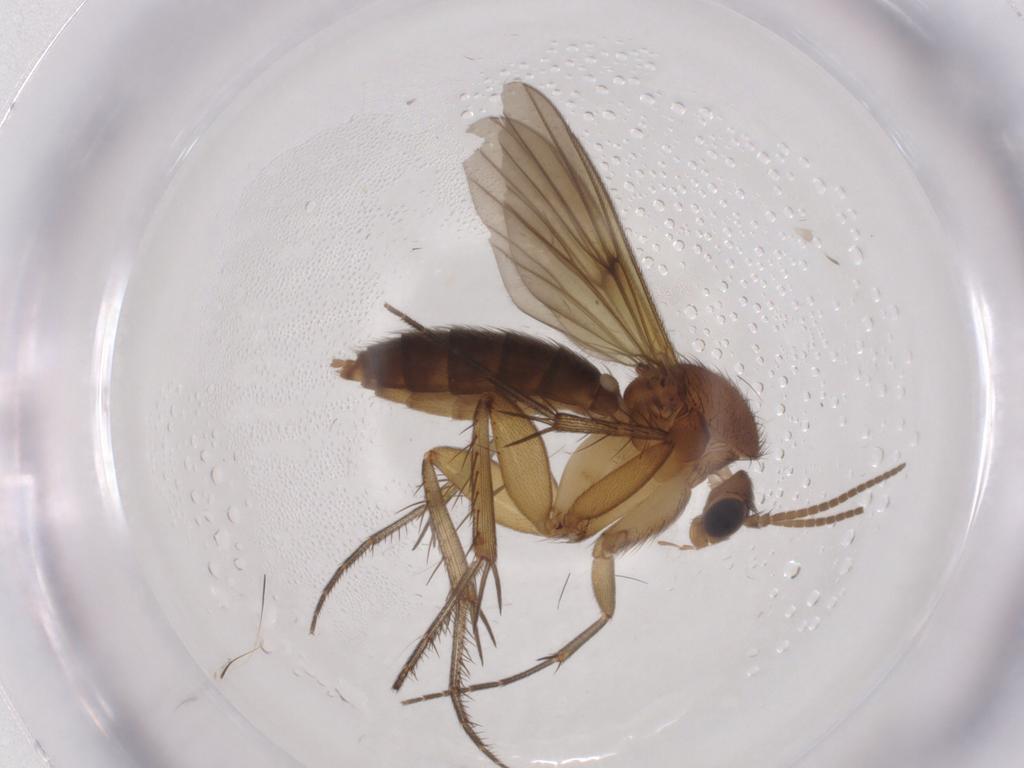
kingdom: Animalia
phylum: Arthropoda
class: Insecta
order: Diptera
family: Mycetophilidae
